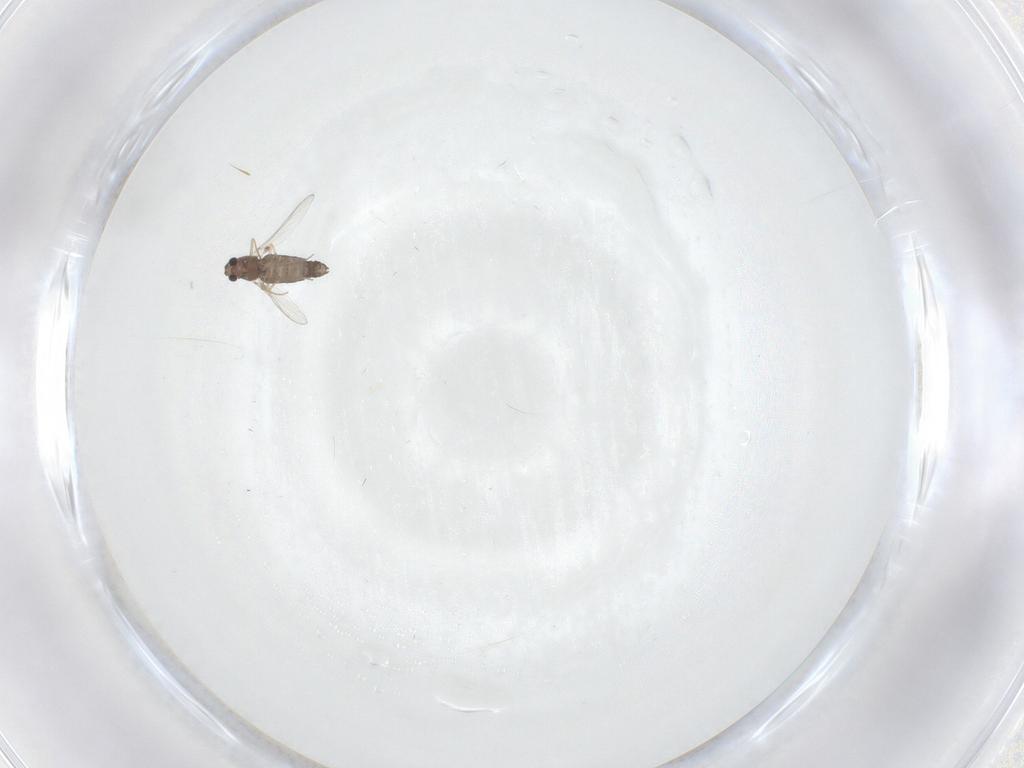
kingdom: Animalia
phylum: Arthropoda
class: Insecta
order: Diptera
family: Chironomidae
